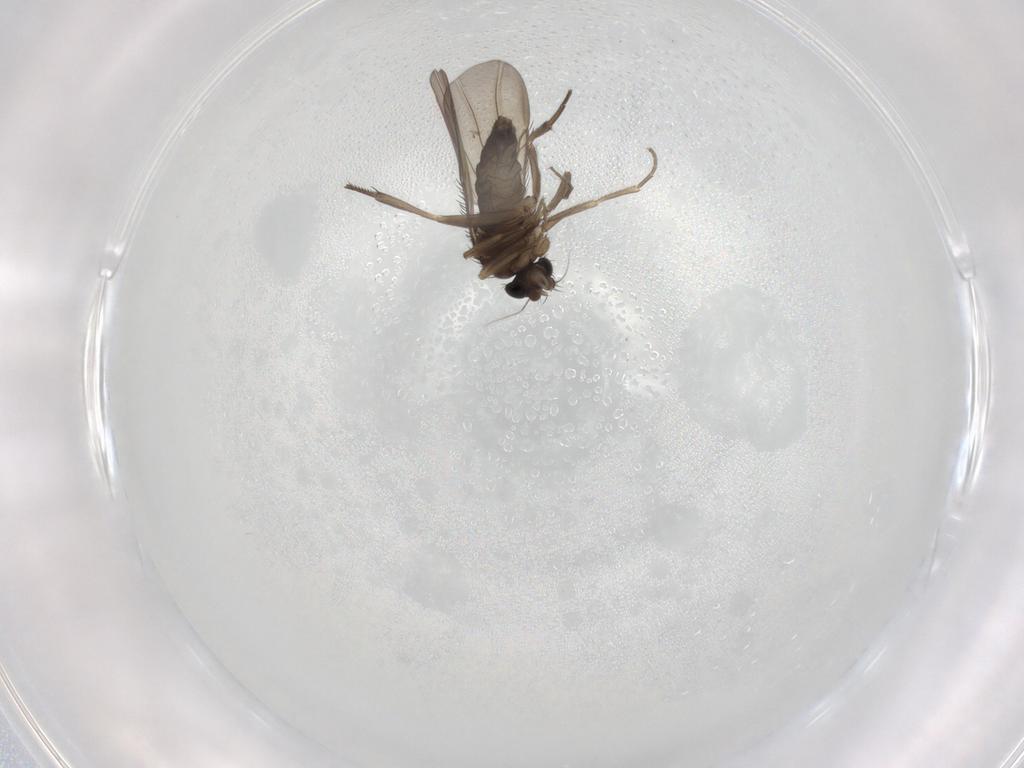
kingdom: Animalia
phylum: Arthropoda
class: Insecta
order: Diptera
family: Phoridae
